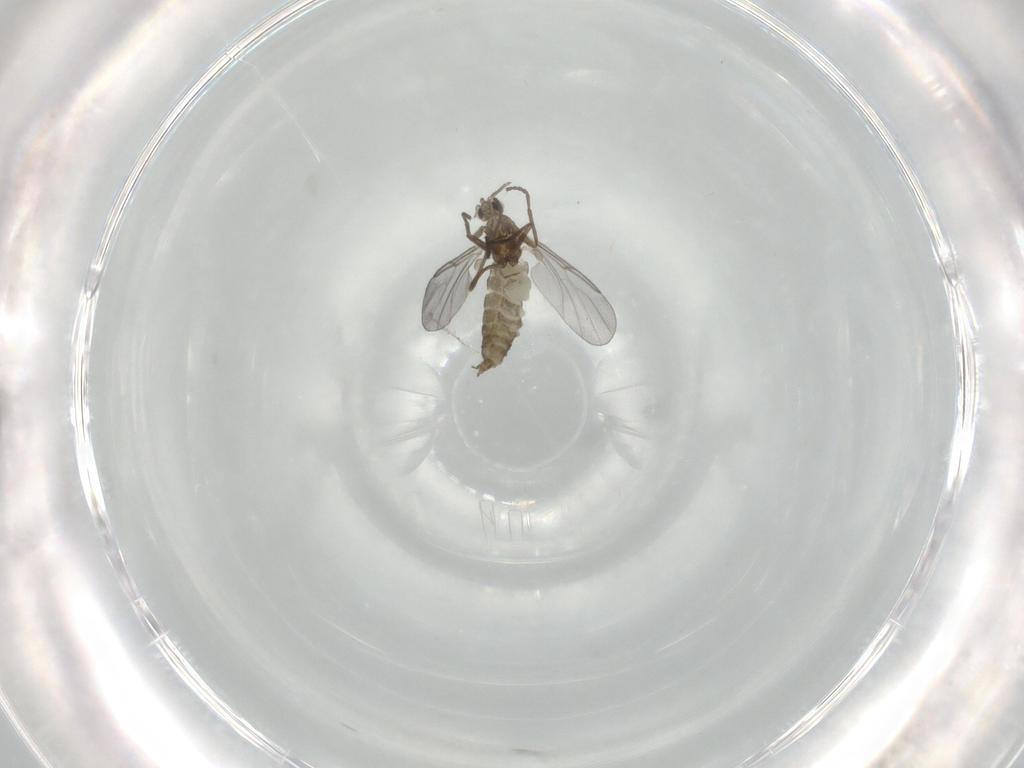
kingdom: Animalia
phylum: Arthropoda
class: Insecta
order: Diptera
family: Cecidomyiidae
